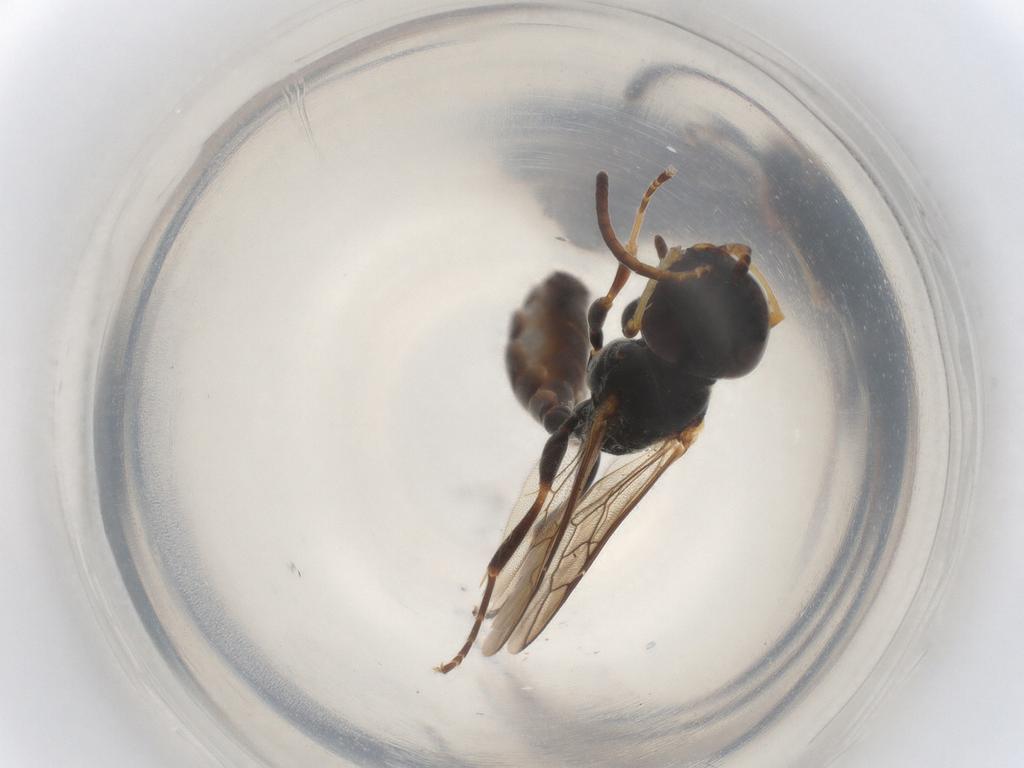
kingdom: Animalia
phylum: Arthropoda
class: Insecta
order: Hymenoptera
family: Crabronidae
